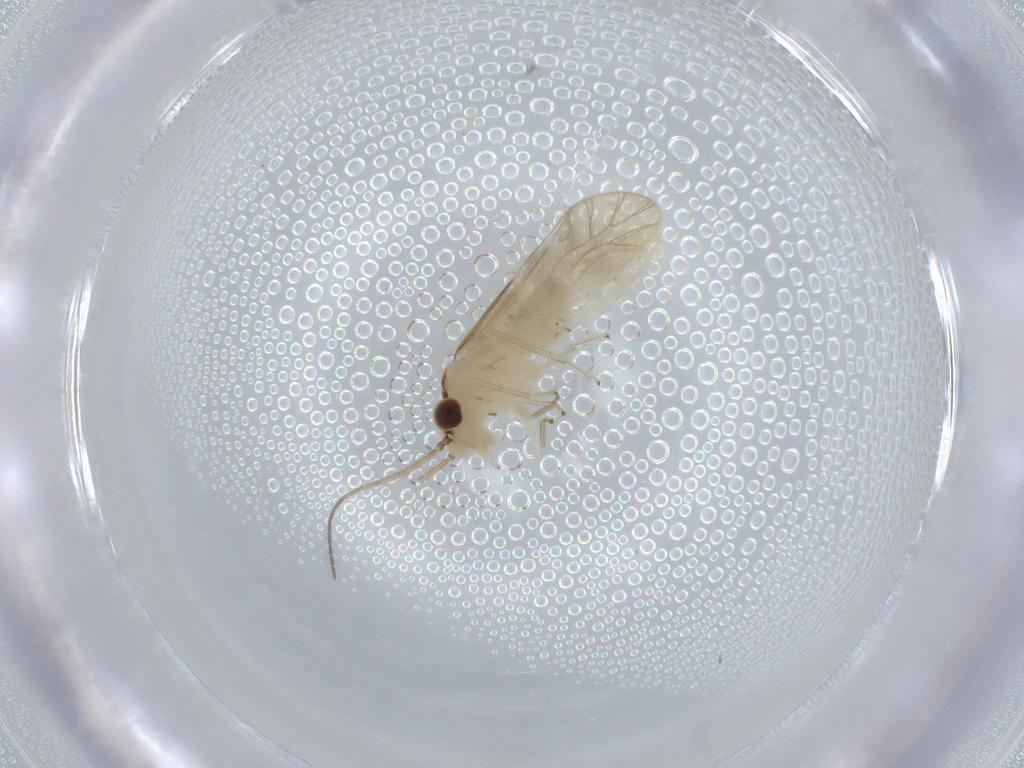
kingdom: Animalia
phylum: Arthropoda
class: Insecta
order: Psocodea
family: Caeciliusidae
